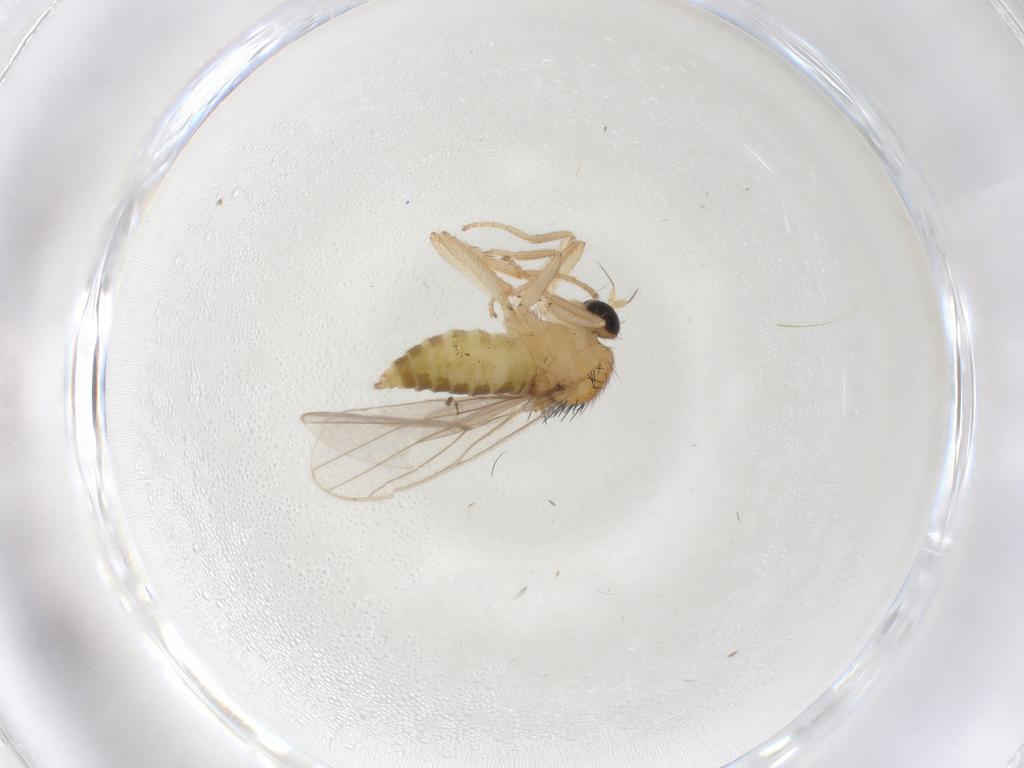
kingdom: Animalia
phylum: Arthropoda
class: Insecta
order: Diptera
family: Hybotidae
